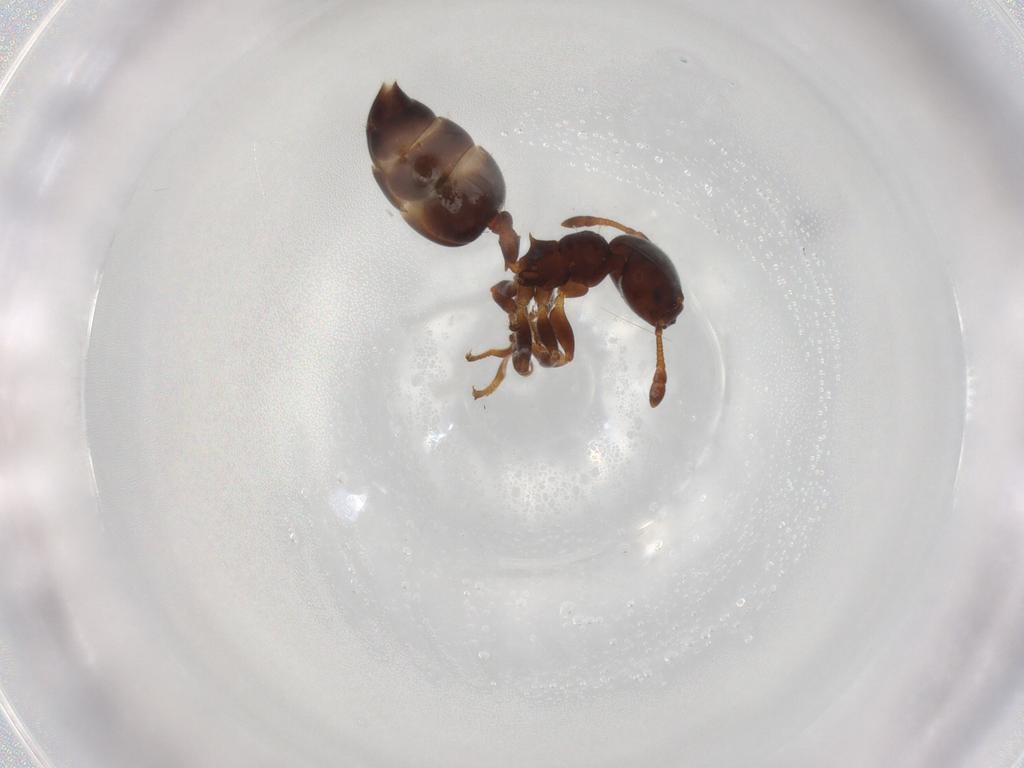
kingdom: Animalia
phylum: Arthropoda
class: Insecta
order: Hymenoptera
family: Formicidae
